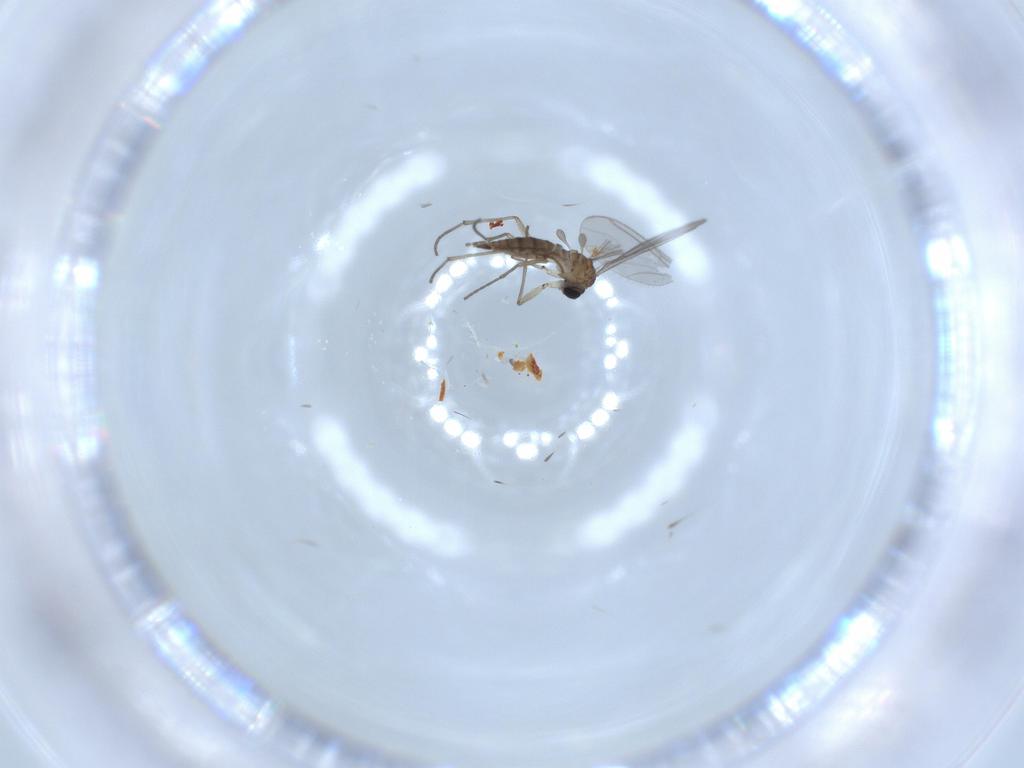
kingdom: Animalia
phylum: Arthropoda
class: Insecta
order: Diptera
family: Sciaridae
